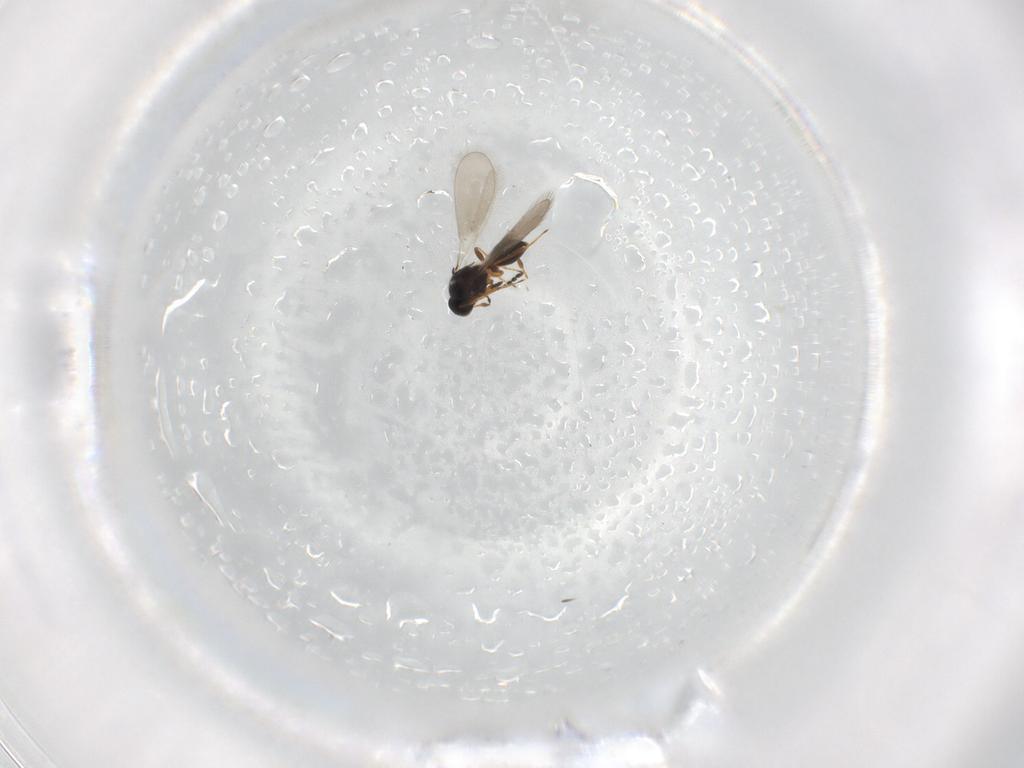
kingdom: Animalia
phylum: Arthropoda
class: Insecta
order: Hymenoptera
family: Platygastridae
